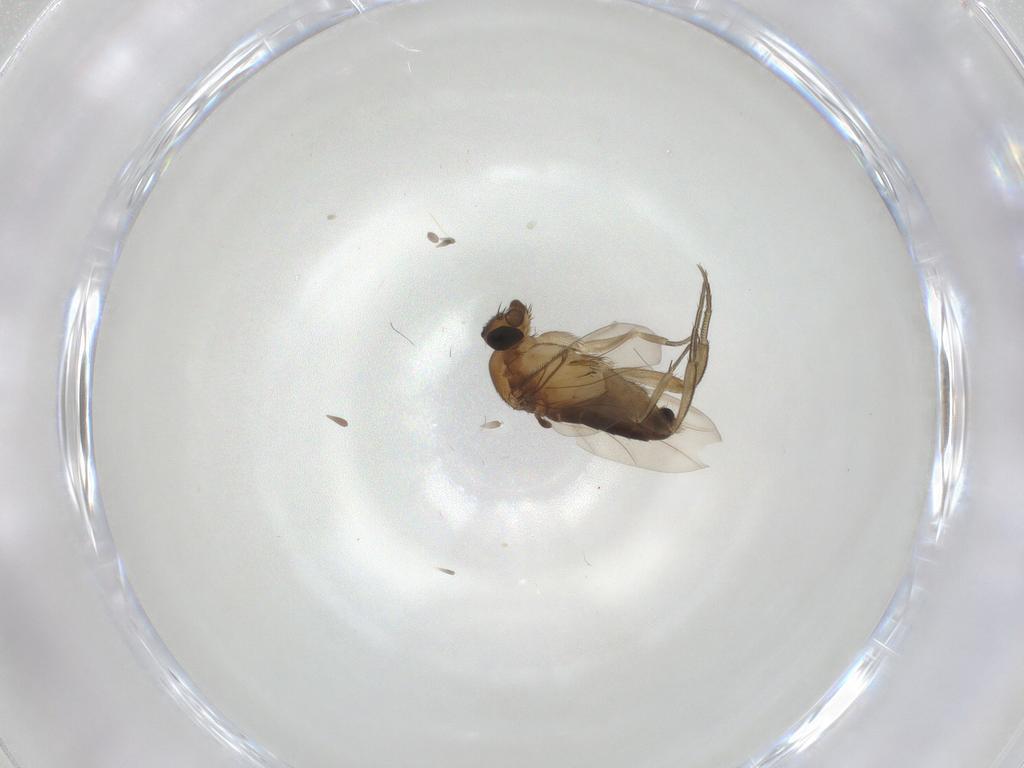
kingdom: Animalia
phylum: Arthropoda
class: Insecta
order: Diptera
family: Phoridae
